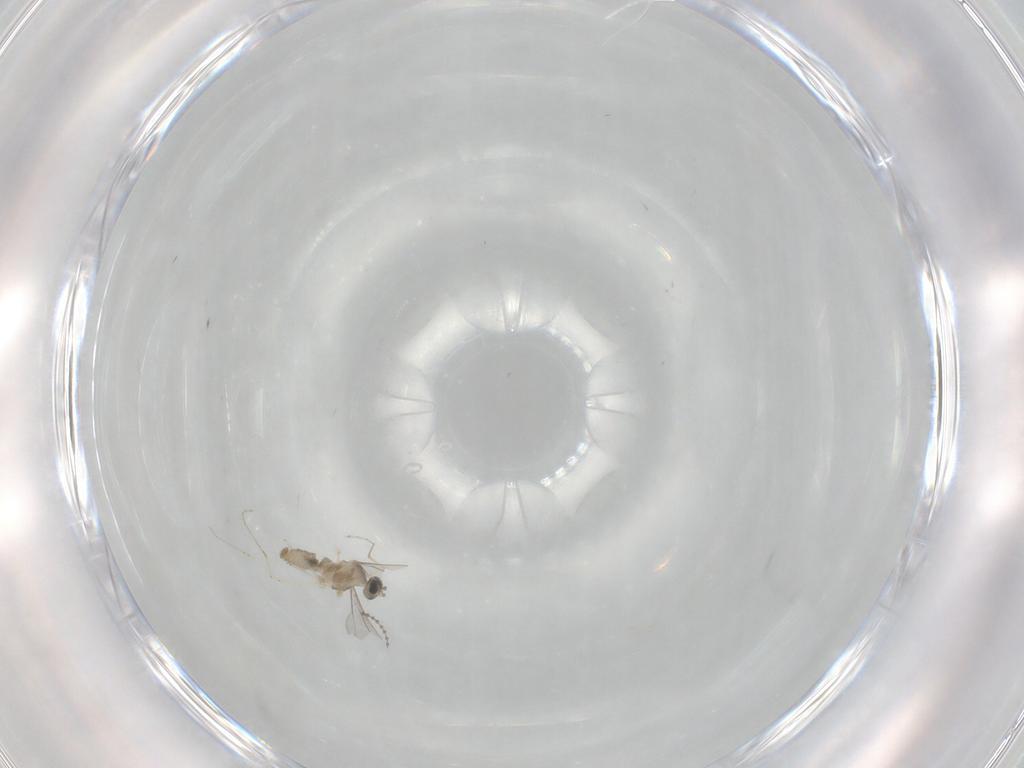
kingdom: Animalia
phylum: Arthropoda
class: Insecta
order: Diptera
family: Cecidomyiidae
